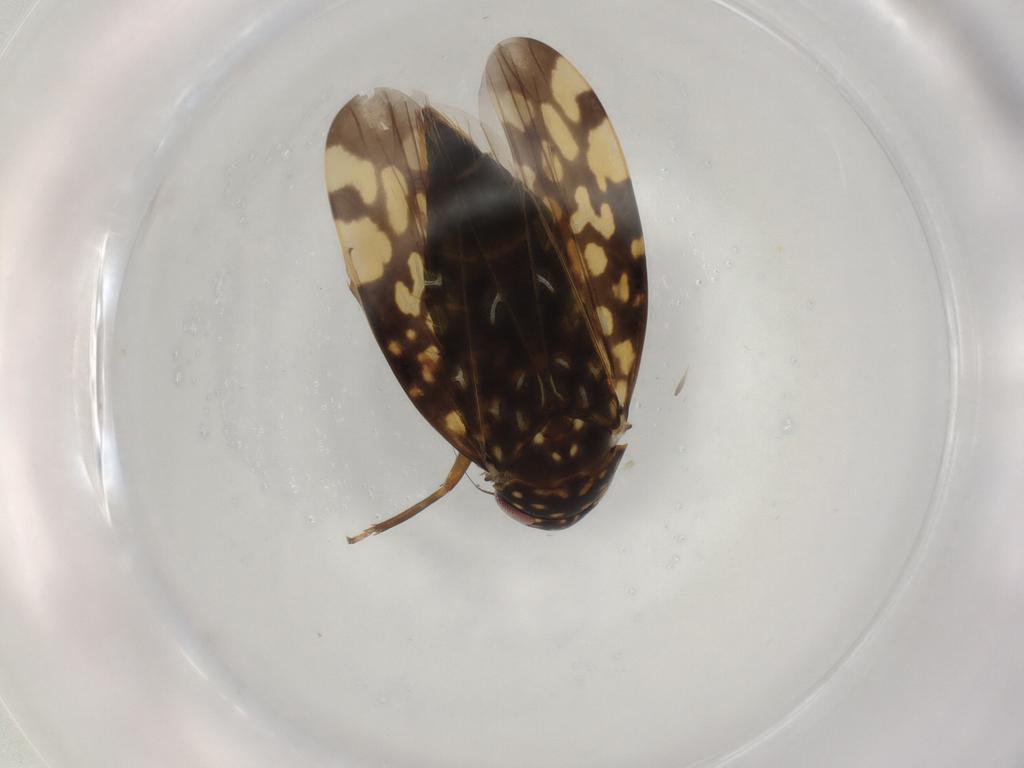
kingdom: Animalia
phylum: Arthropoda
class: Insecta
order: Hemiptera
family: Cicadellidae
